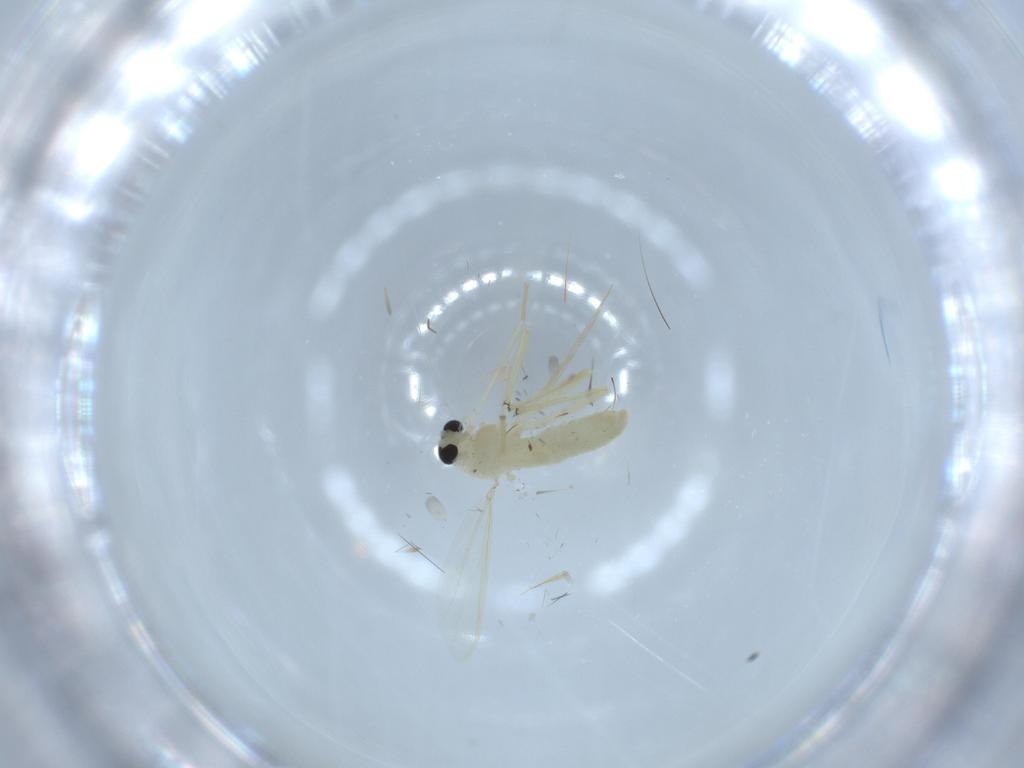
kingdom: Animalia
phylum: Arthropoda
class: Insecta
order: Diptera
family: Chironomidae
